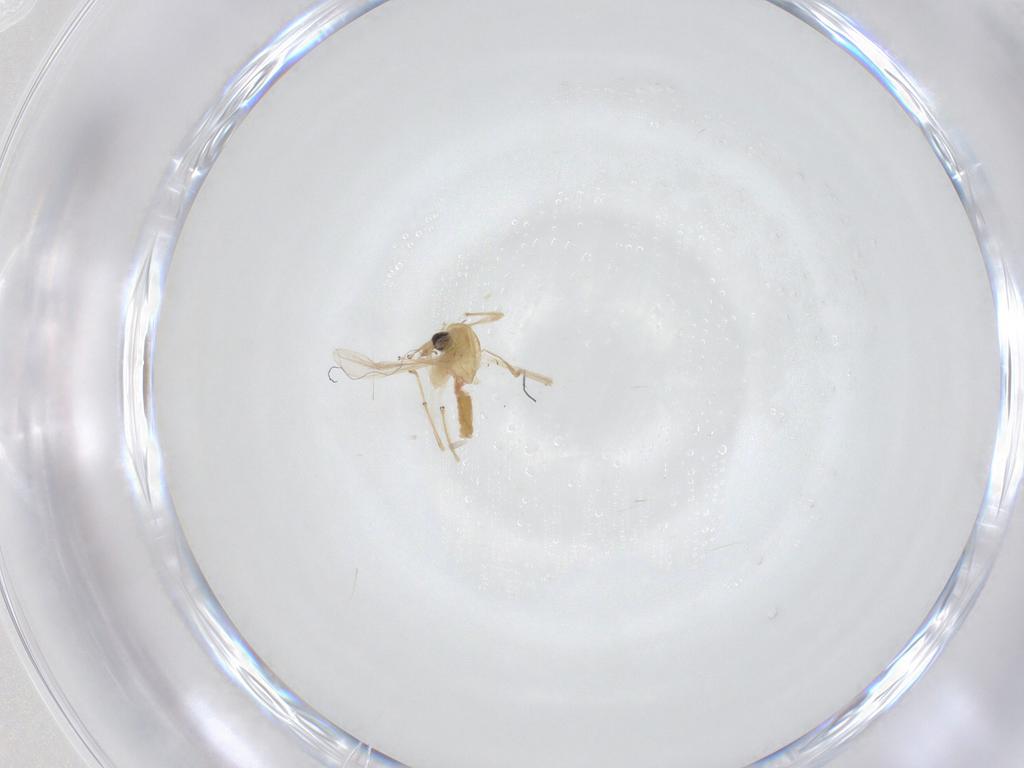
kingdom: Animalia
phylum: Arthropoda
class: Insecta
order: Diptera
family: Chironomidae
